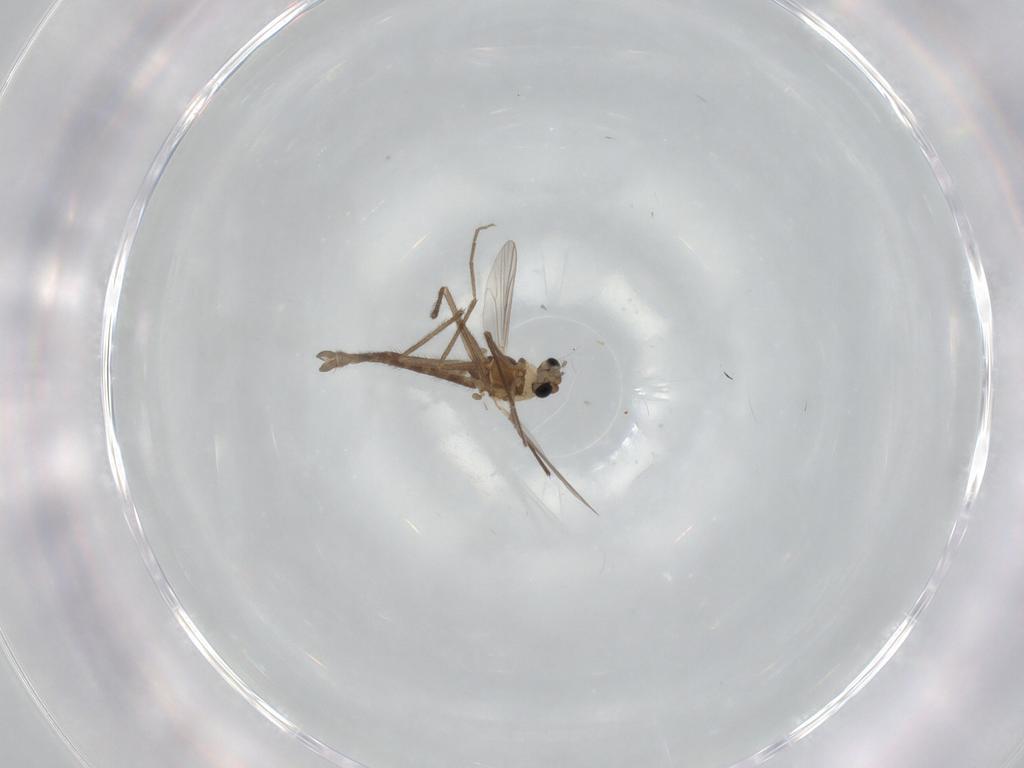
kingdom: Animalia
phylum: Arthropoda
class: Insecta
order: Diptera
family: Chironomidae
